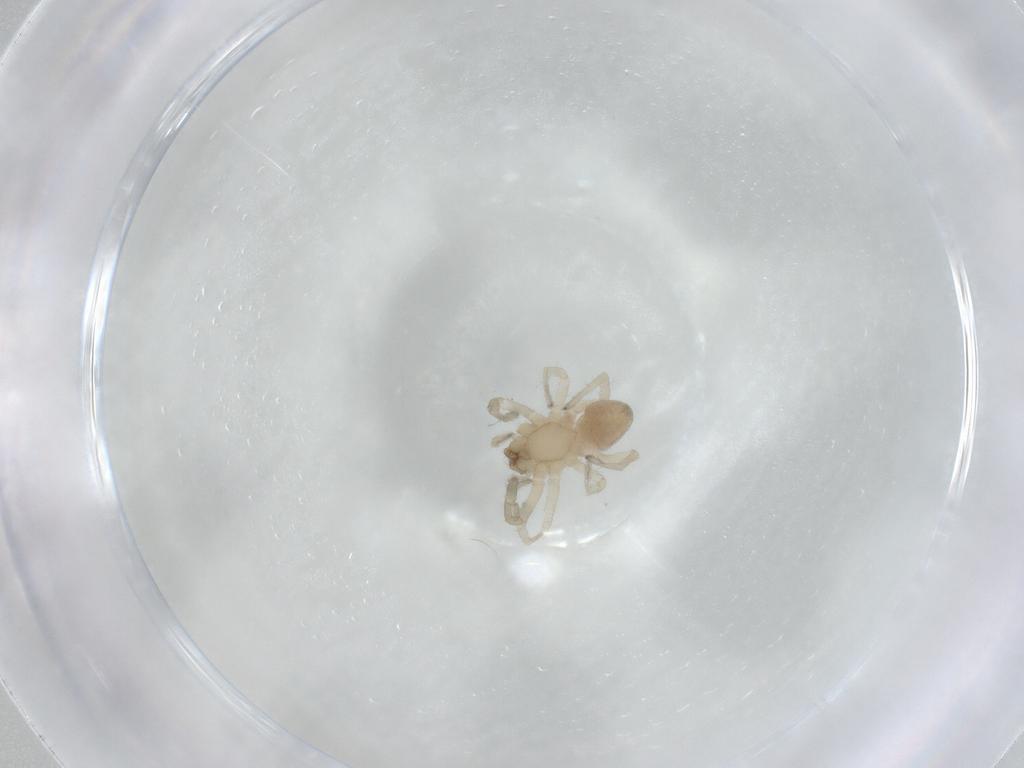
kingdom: Animalia
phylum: Arthropoda
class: Arachnida
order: Araneae
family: Trachelidae
